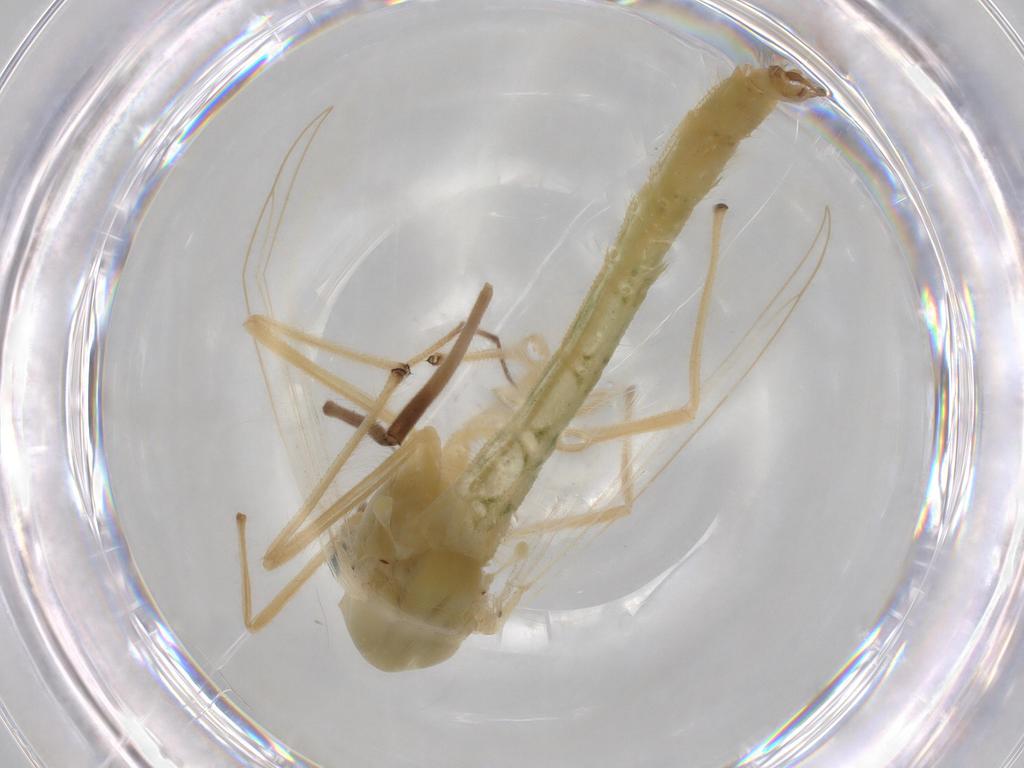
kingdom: Animalia
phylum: Arthropoda
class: Insecta
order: Diptera
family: Chironomidae
